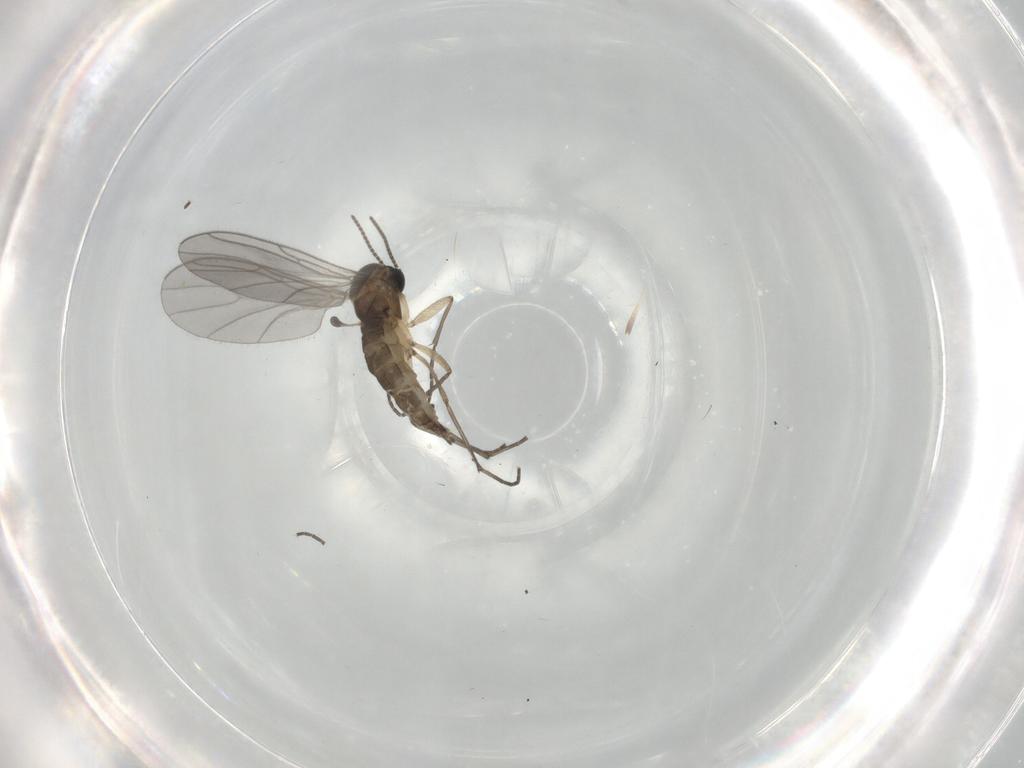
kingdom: Animalia
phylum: Arthropoda
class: Insecta
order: Diptera
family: Sciaridae
